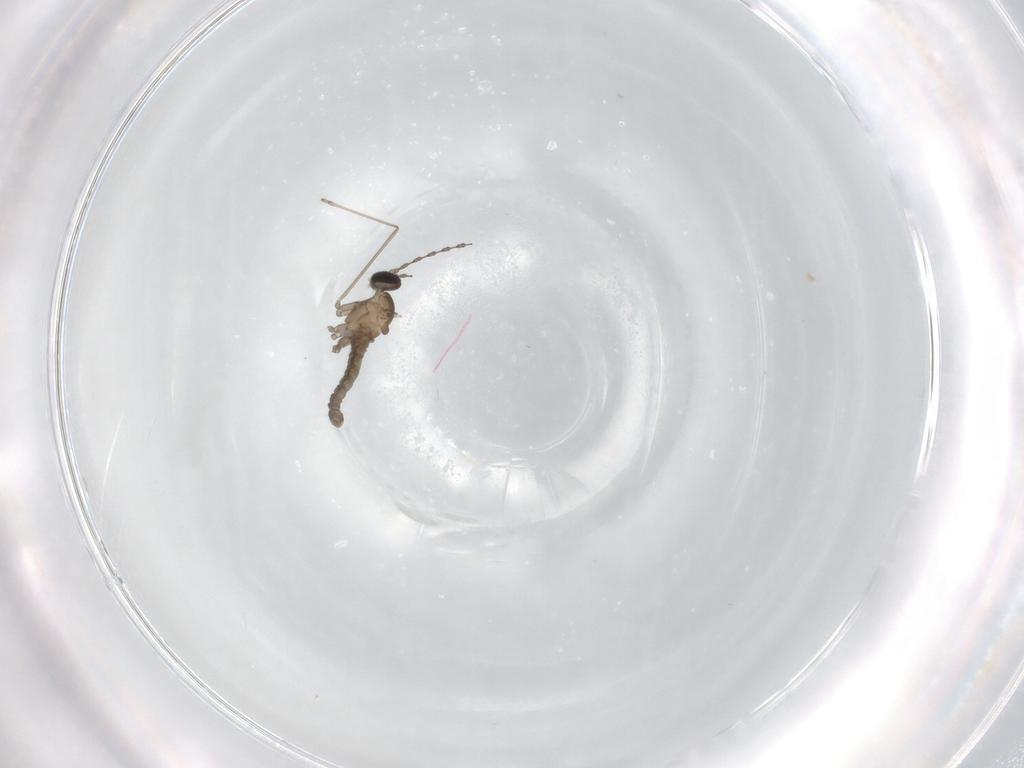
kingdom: Animalia
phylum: Arthropoda
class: Insecta
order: Diptera
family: Cecidomyiidae
